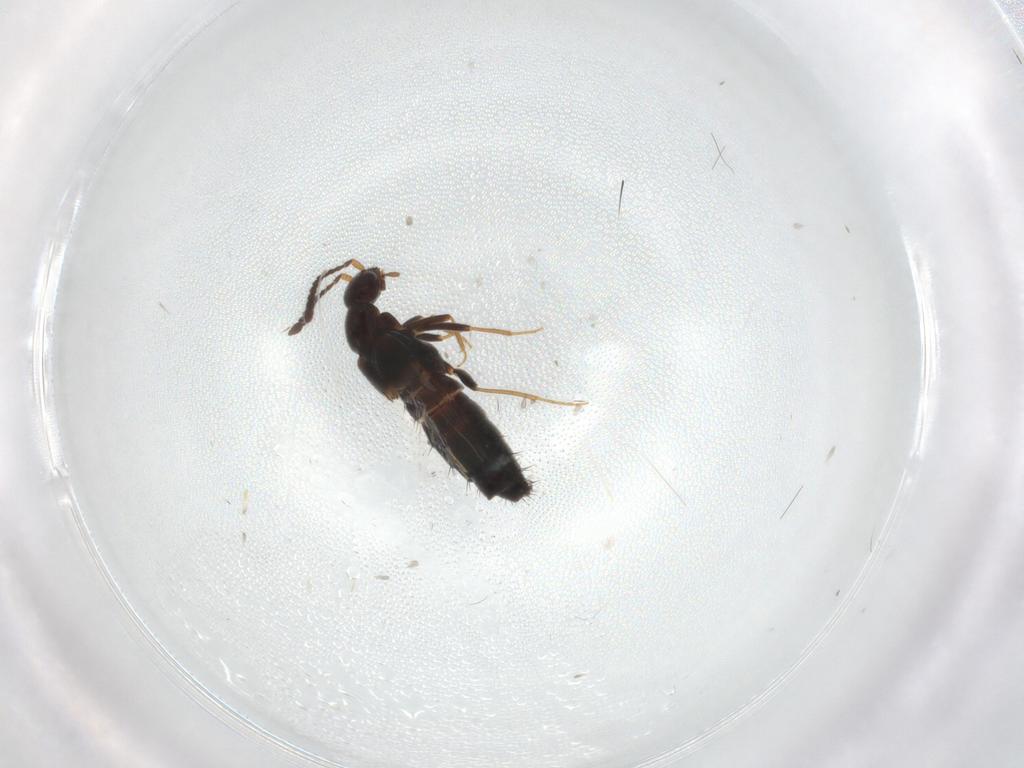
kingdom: Animalia
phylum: Arthropoda
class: Insecta
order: Coleoptera
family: Staphylinidae
